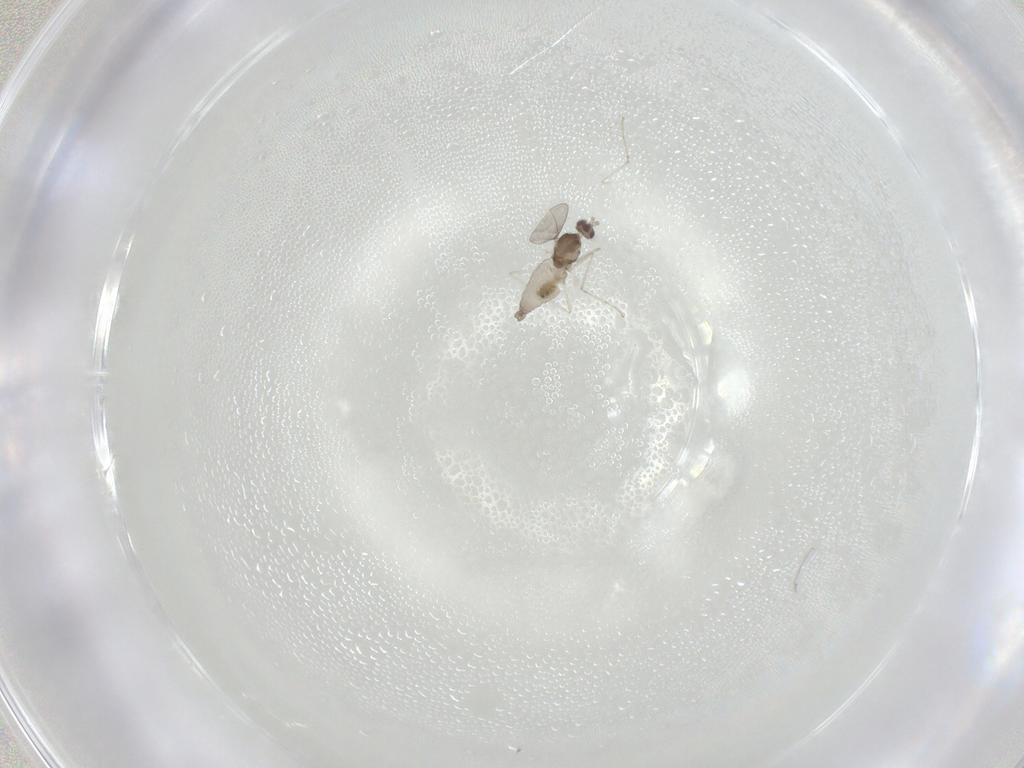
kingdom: Animalia
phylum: Arthropoda
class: Insecta
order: Diptera
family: Cecidomyiidae
